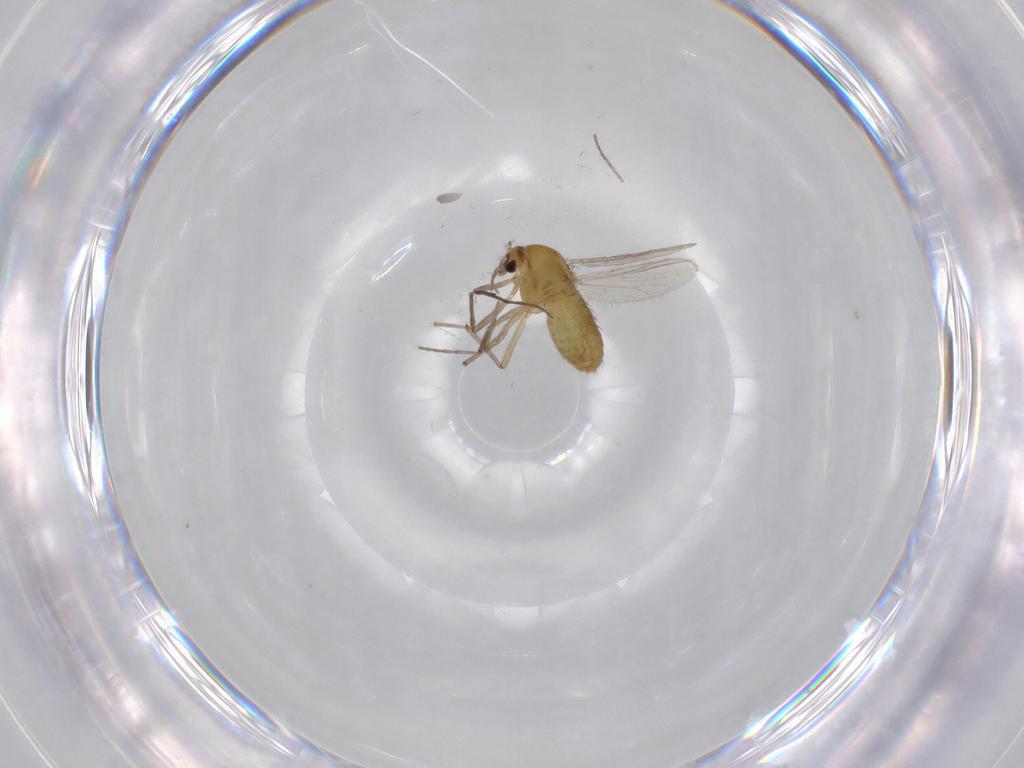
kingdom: Animalia
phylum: Arthropoda
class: Insecta
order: Diptera
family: Chironomidae
